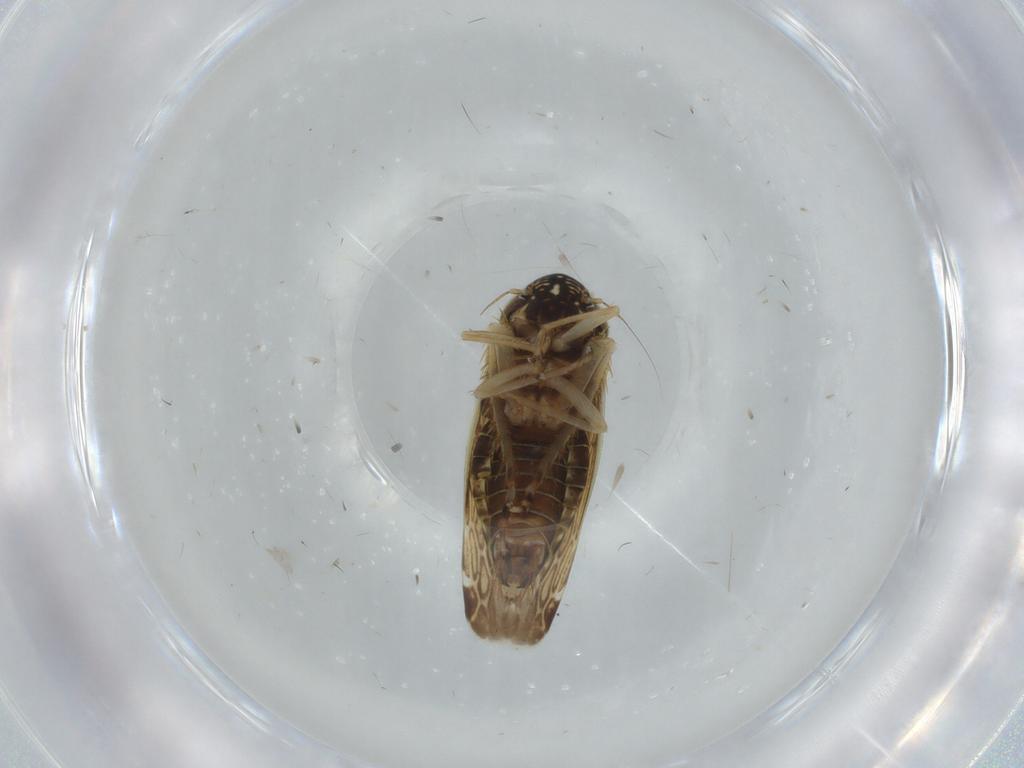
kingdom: Animalia
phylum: Arthropoda
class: Insecta
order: Hemiptera
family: Cicadellidae
